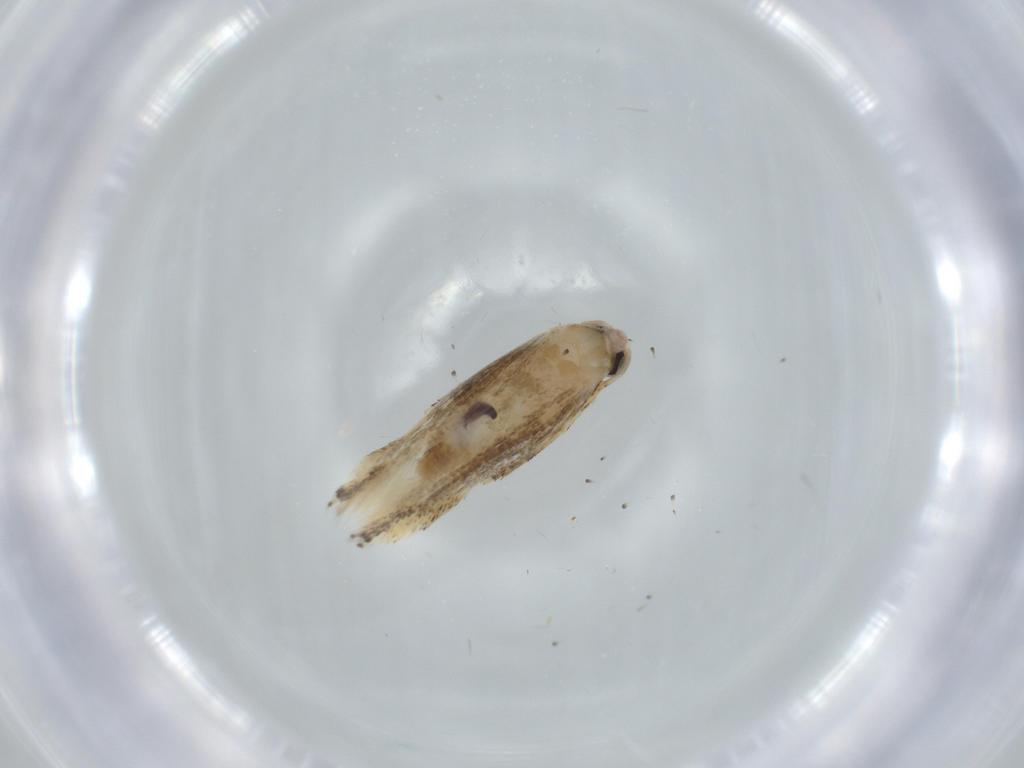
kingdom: Animalia
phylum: Arthropoda
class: Insecta
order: Lepidoptera
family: Bucculatricidae
